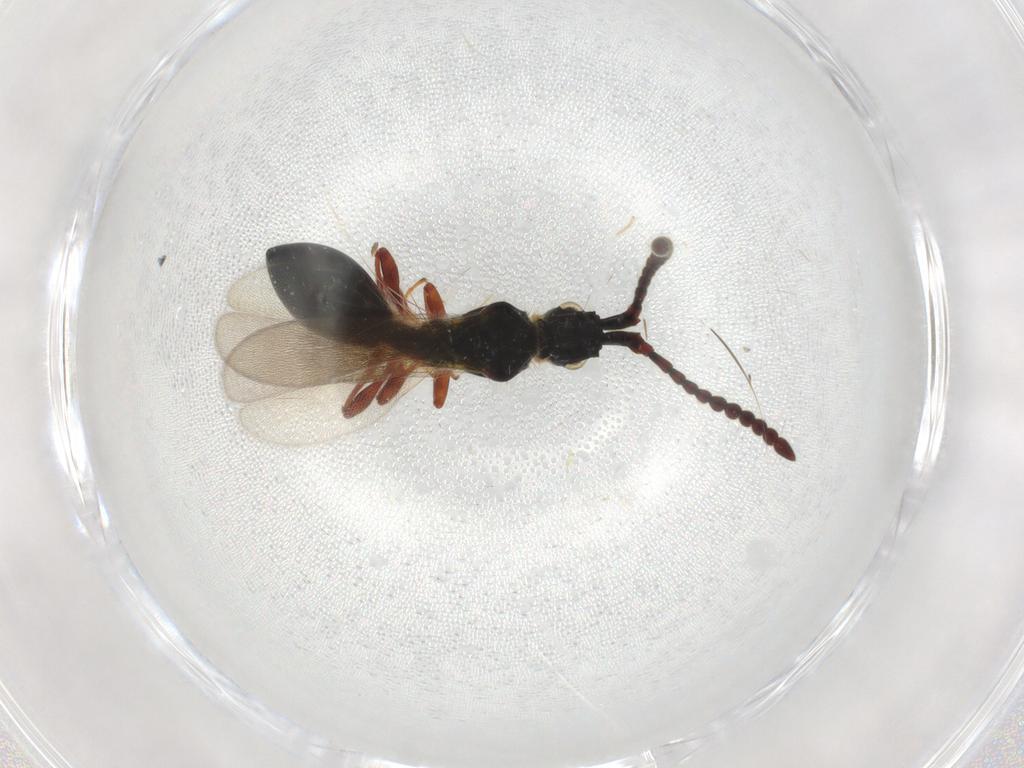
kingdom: Animalia
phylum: Arthropoda
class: Insecta
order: Hymenoptera
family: Diapriidae
